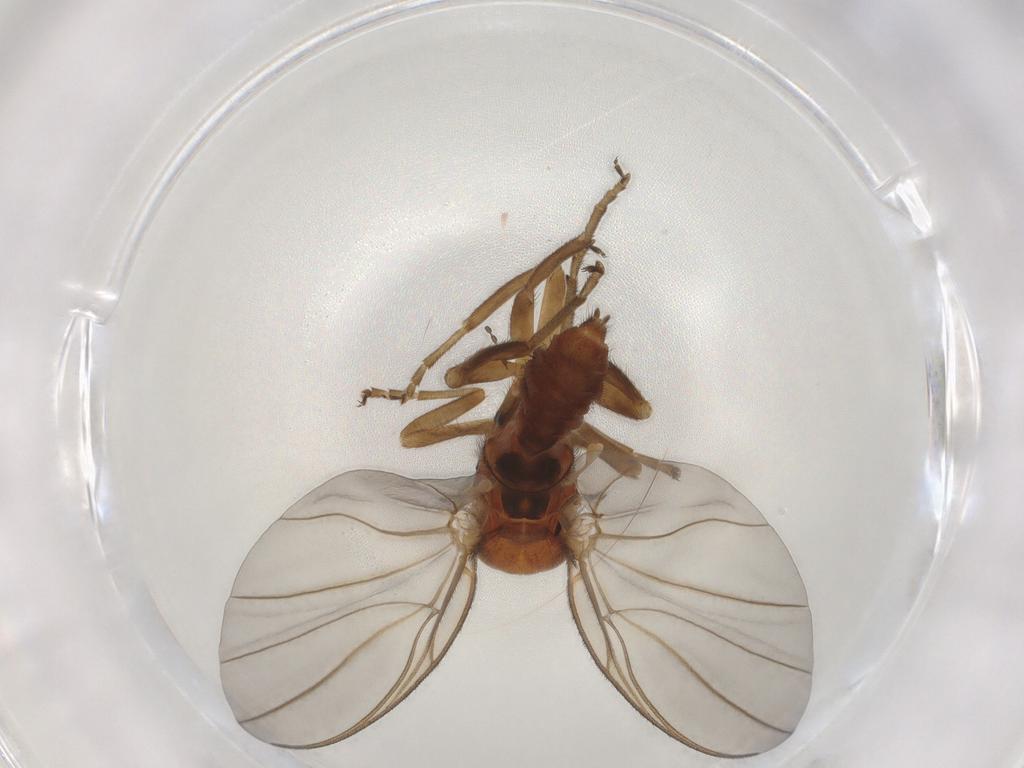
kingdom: Animalia
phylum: Arthropoda
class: Insecta
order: Diptera
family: Simuliidae
